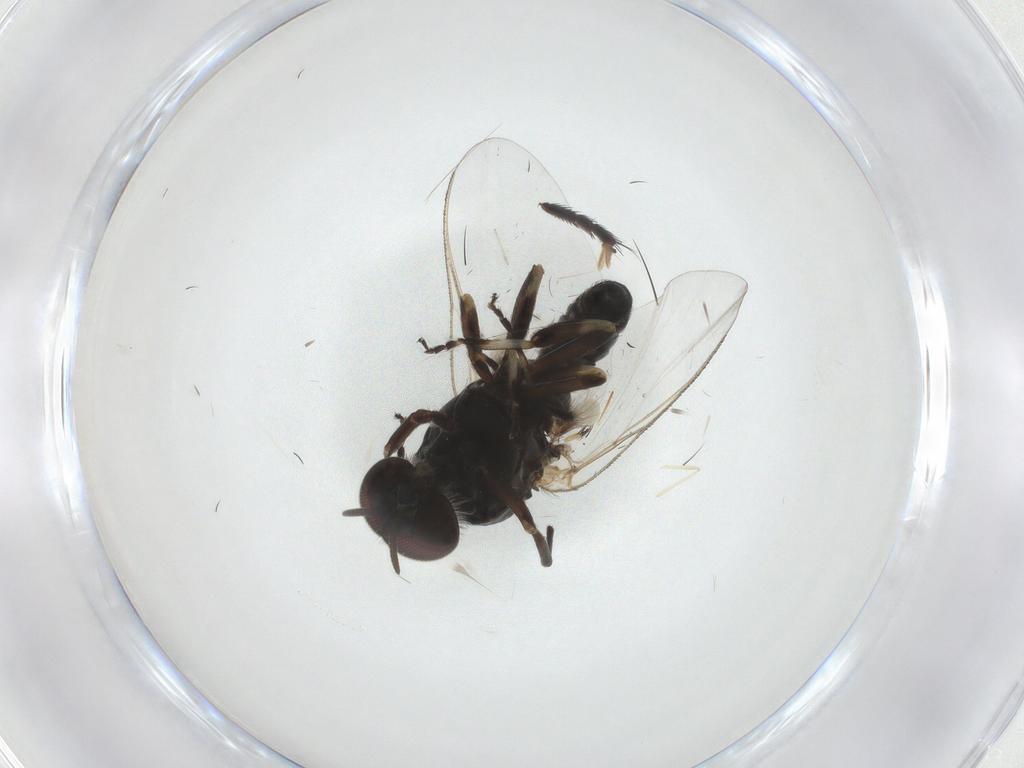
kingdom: Animalia
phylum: Arthropoda
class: Insecta
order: Diptera
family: Simuliidae
